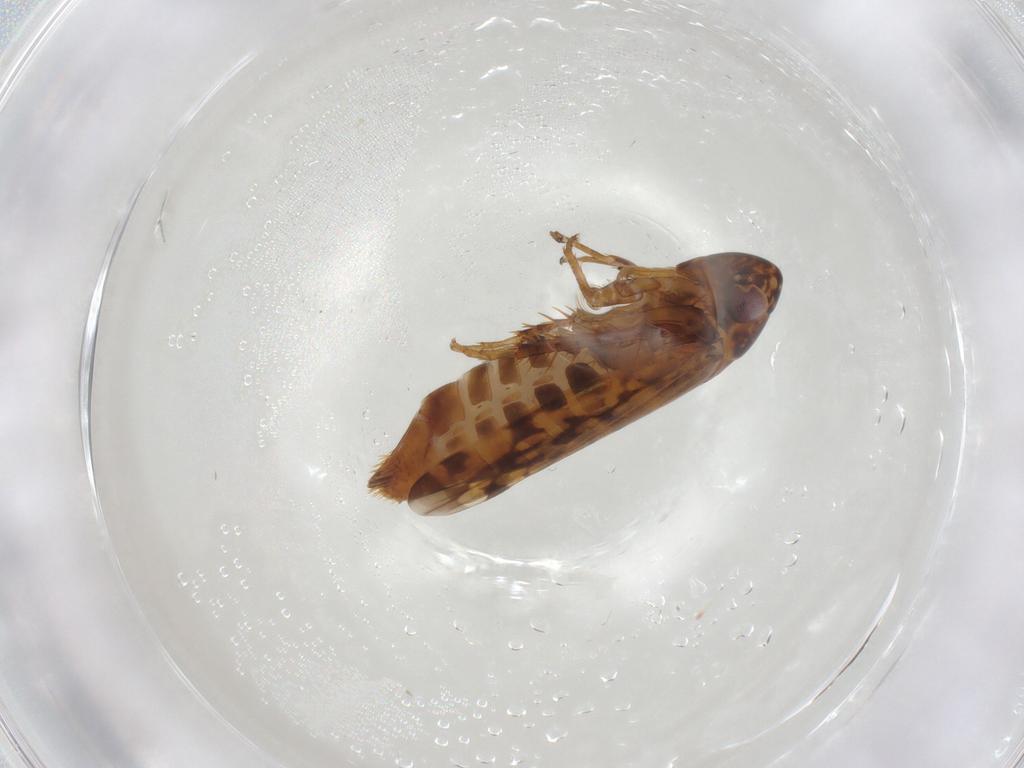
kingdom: Animalia
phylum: Arthropoda
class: Insecta
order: Hemiptera
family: Cicadellidae
